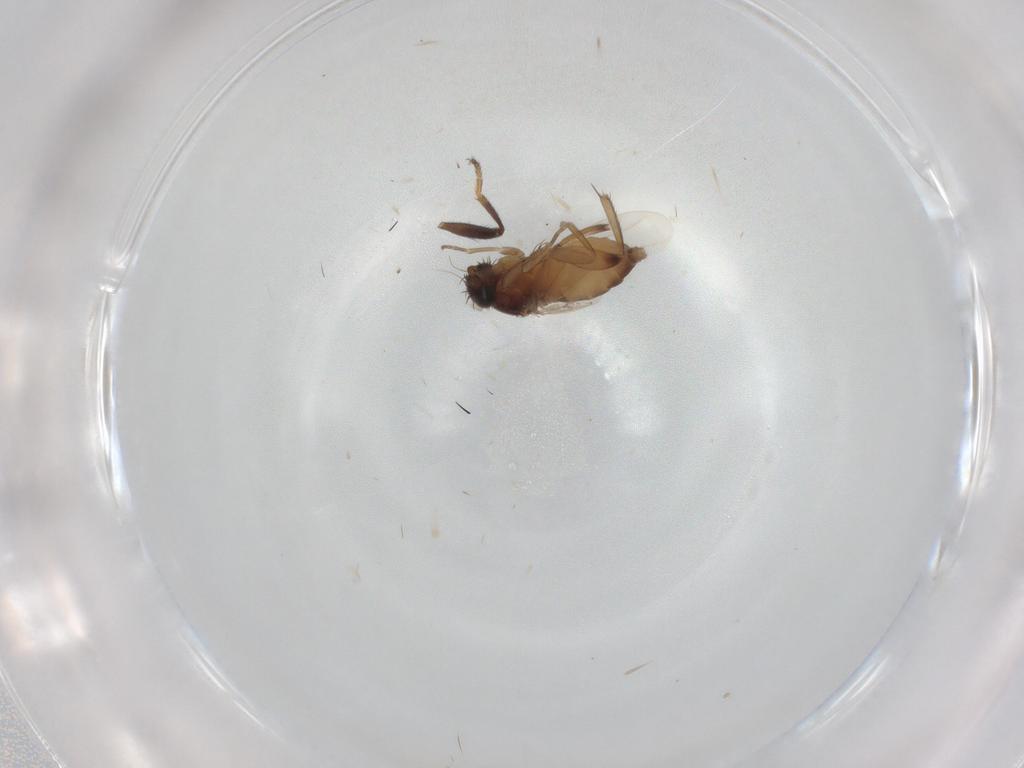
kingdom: Animalia
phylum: Arthropoda
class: Insecta
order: Diptera
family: Phoridae
